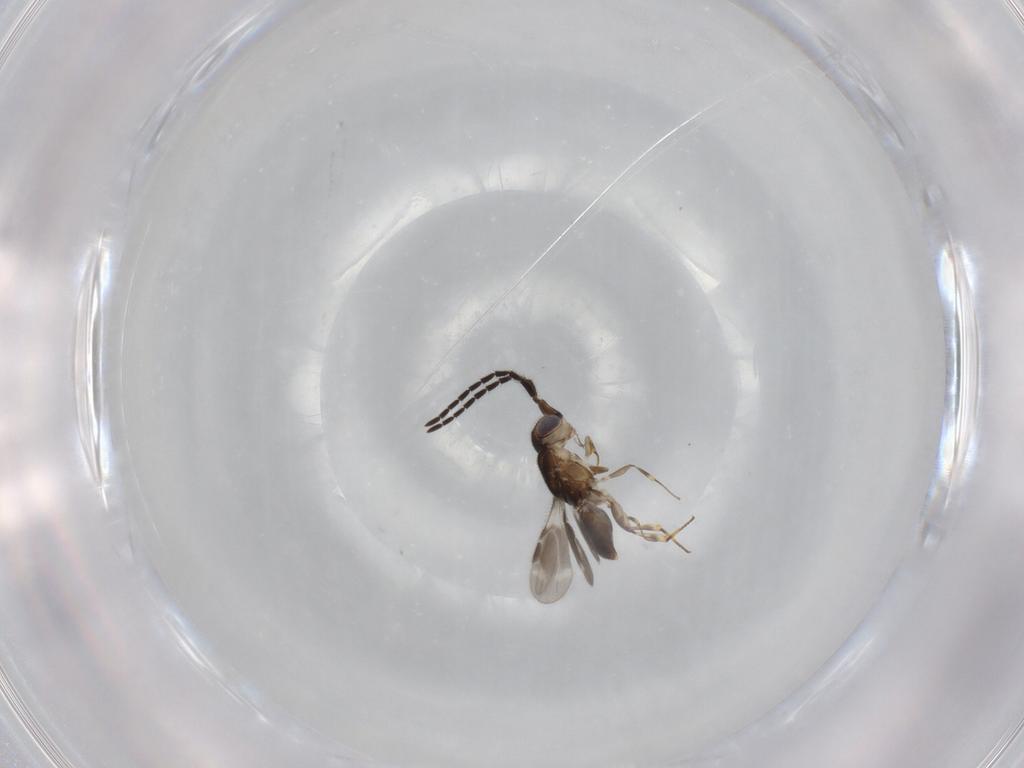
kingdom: Animalia
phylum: Arthropoda
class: Insecta
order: Hymenoptera
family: Megaspilidae
